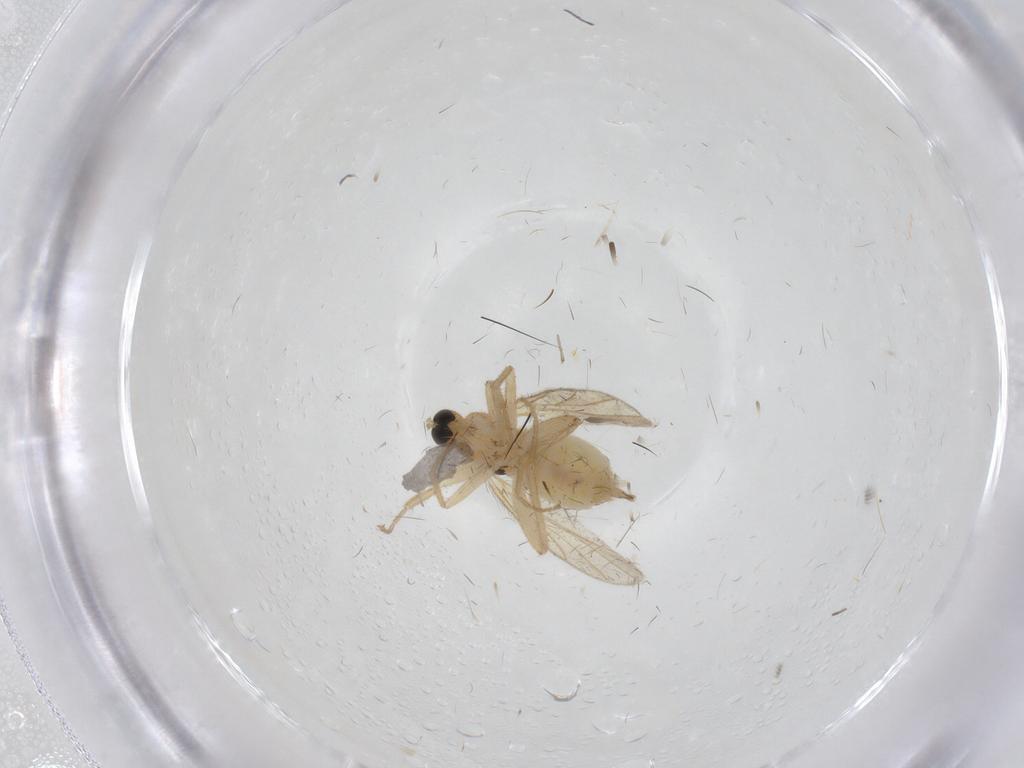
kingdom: Animalia
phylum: Arthropoda
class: Insecta
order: Diptera
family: Hybotidae
